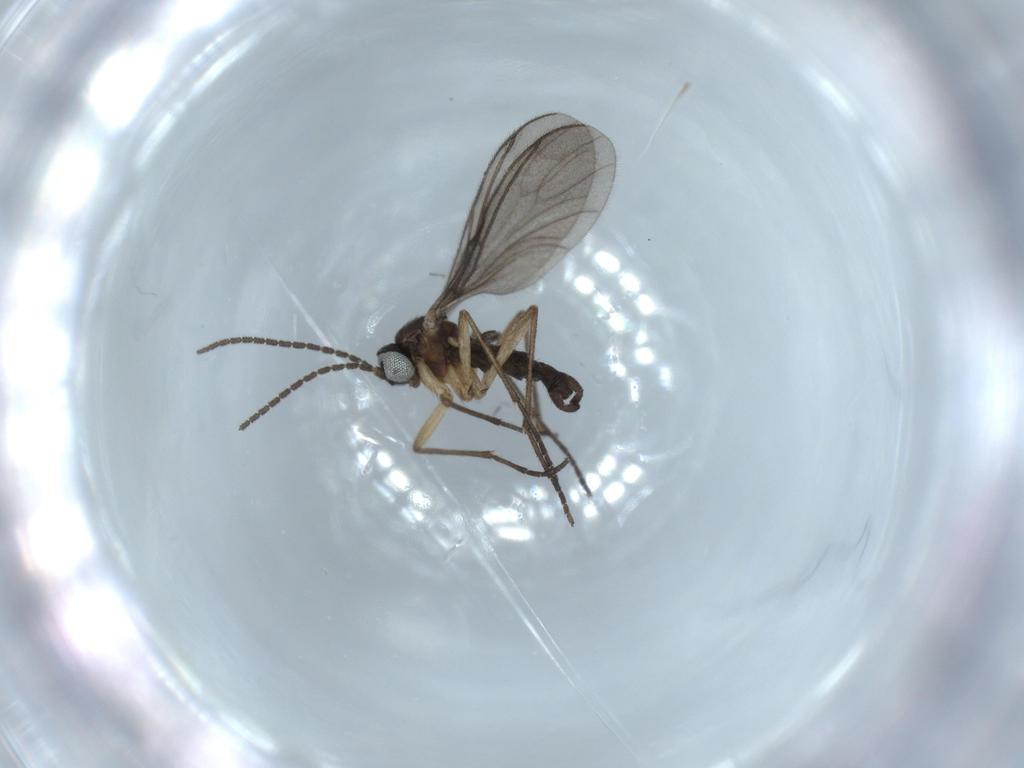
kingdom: Animalia
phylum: Arthropoda
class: Insecta
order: Diptera
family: Sciaridae
